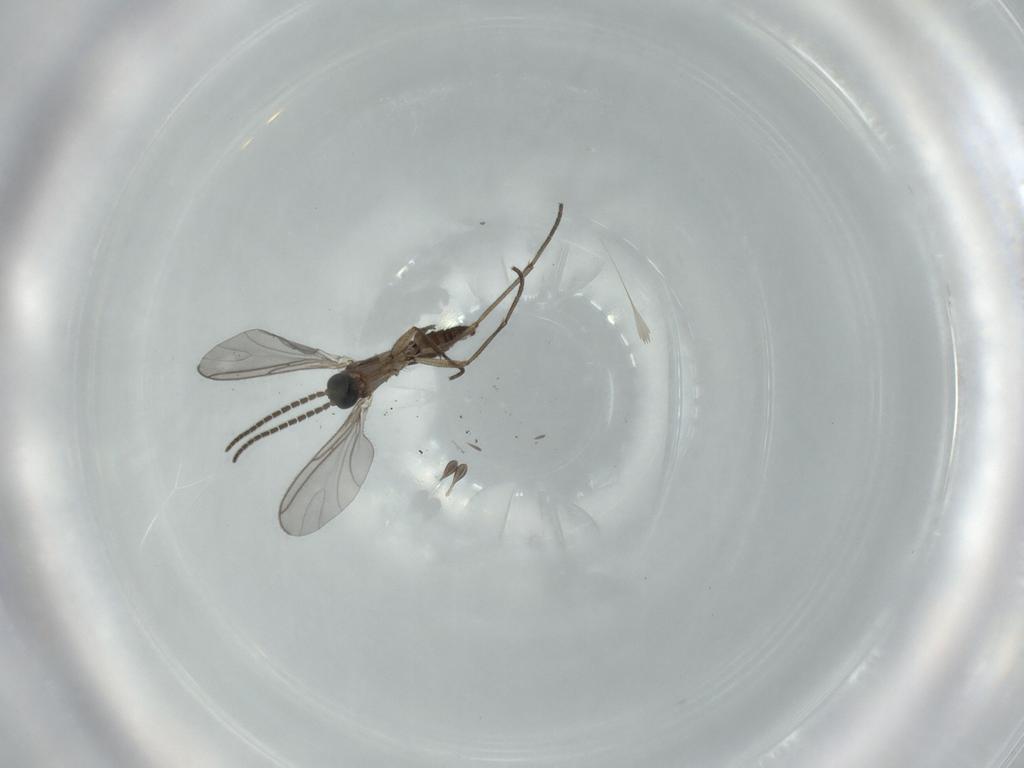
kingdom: Animalia
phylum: Arthropoda
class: Insecta
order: Diptera
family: Sciaridae
